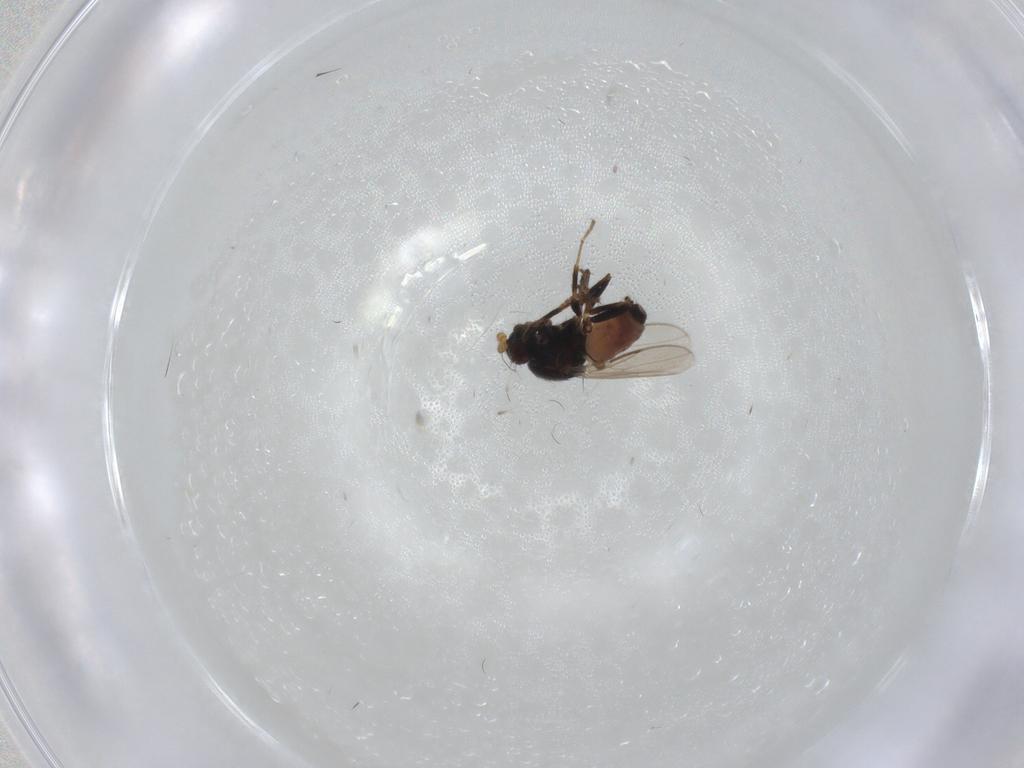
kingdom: Animalia
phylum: Arthropoda
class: Insecta
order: Diptera
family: Sphaeroceridae
